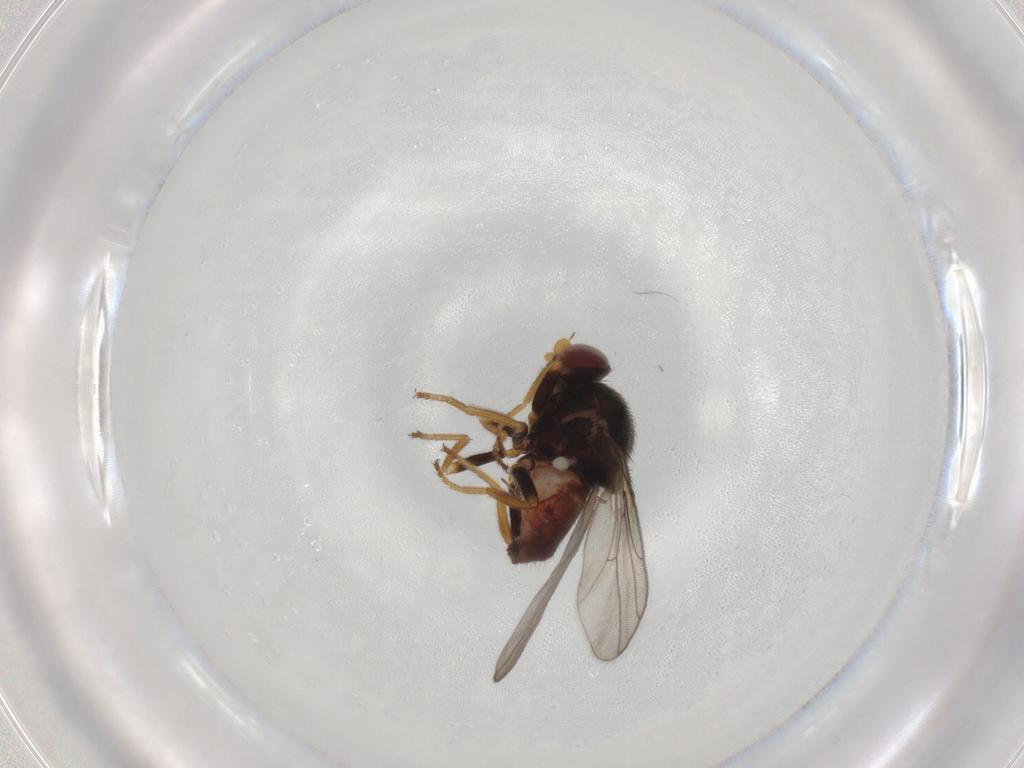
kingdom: Animalia
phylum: Arthropoda
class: Insecta
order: Diptera
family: Chloropidae
